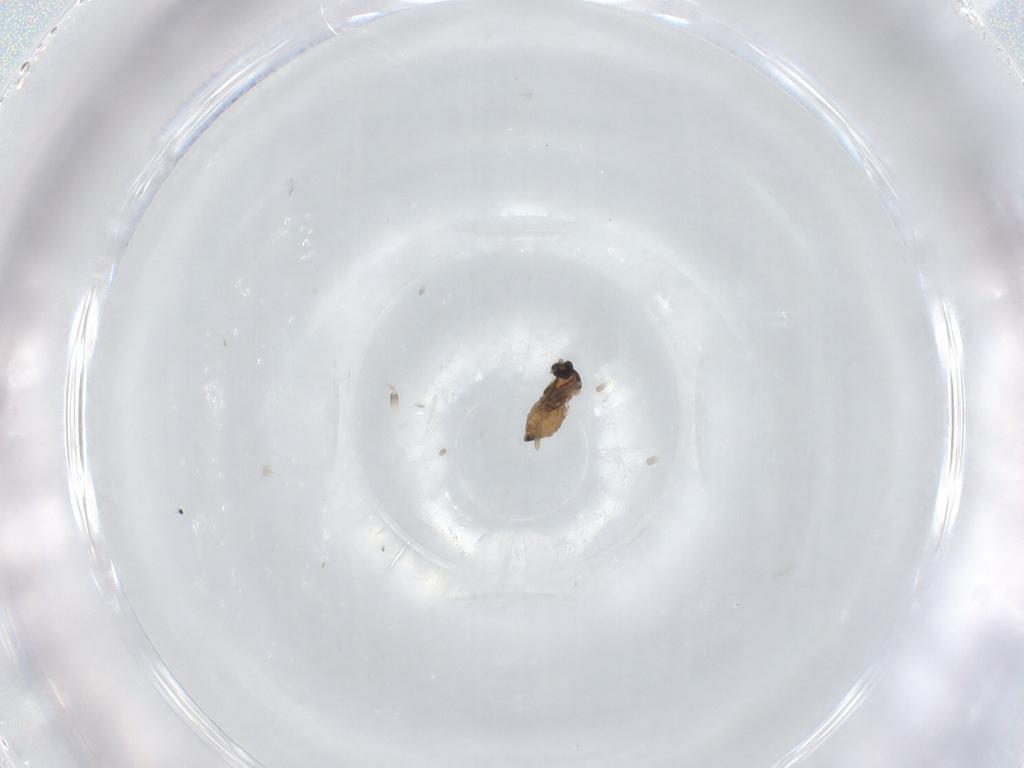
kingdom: Animalia
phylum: Arthropoda
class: Insecta
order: Diptera
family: Cecidomyiidae
